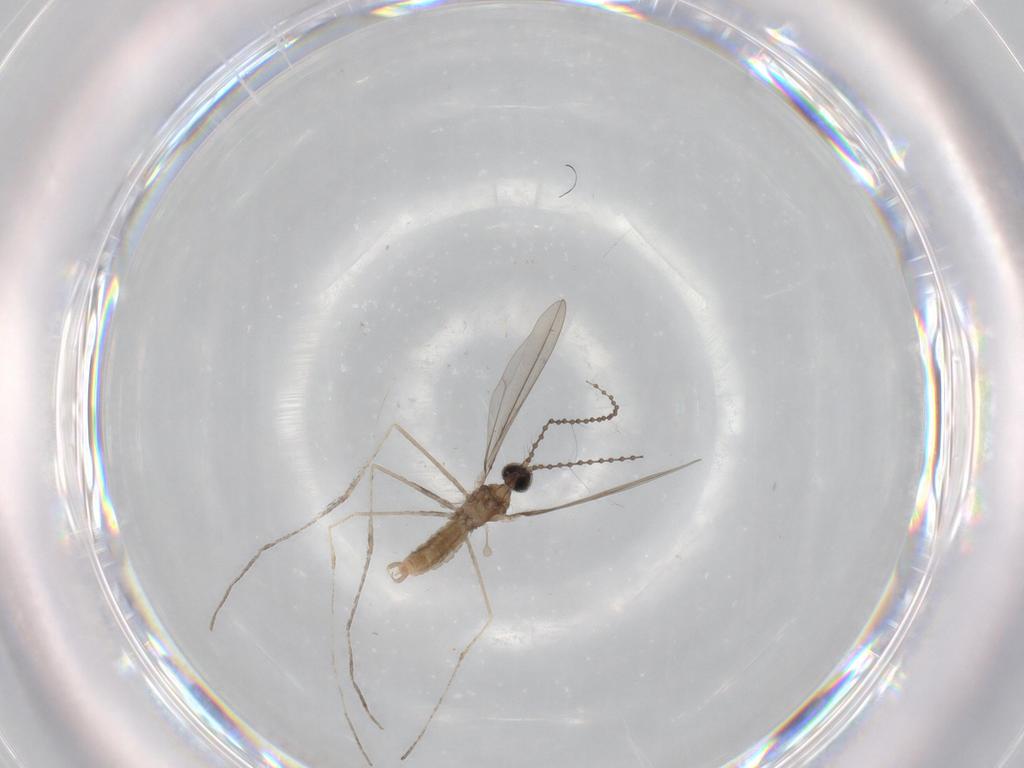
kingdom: Animalia
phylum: Arthropoda
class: Insecta
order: Diptera
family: Cecidomyiidae
